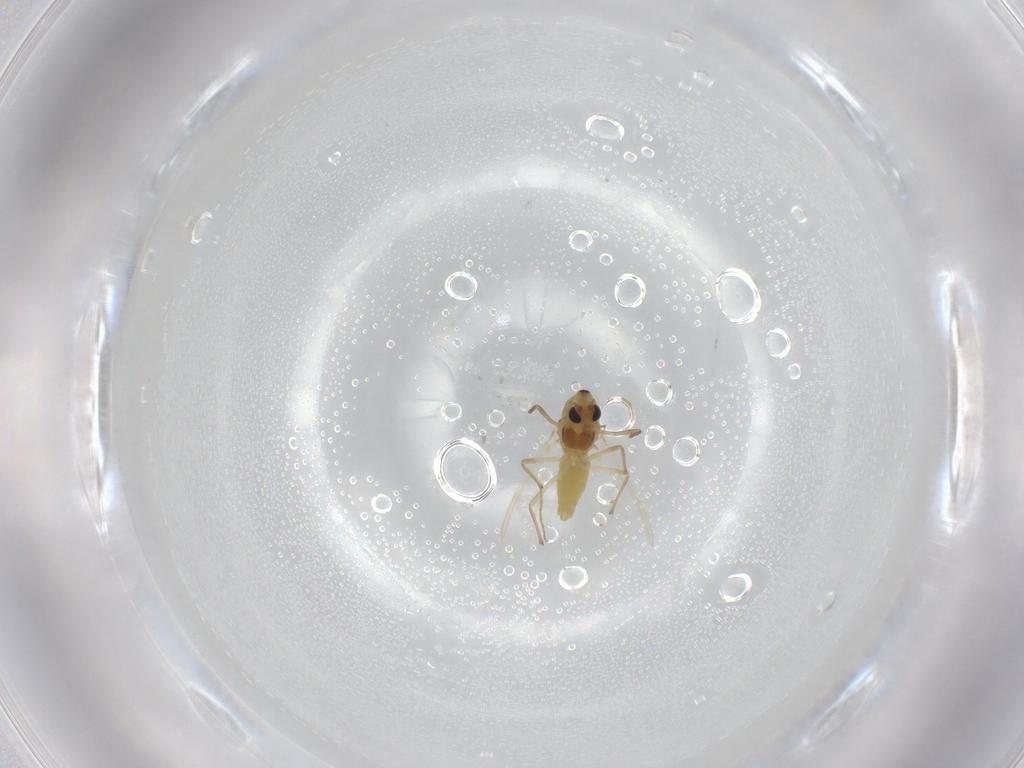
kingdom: Animalia
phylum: Arthropoda
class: Insecta
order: Diptera
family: Chironomidae
